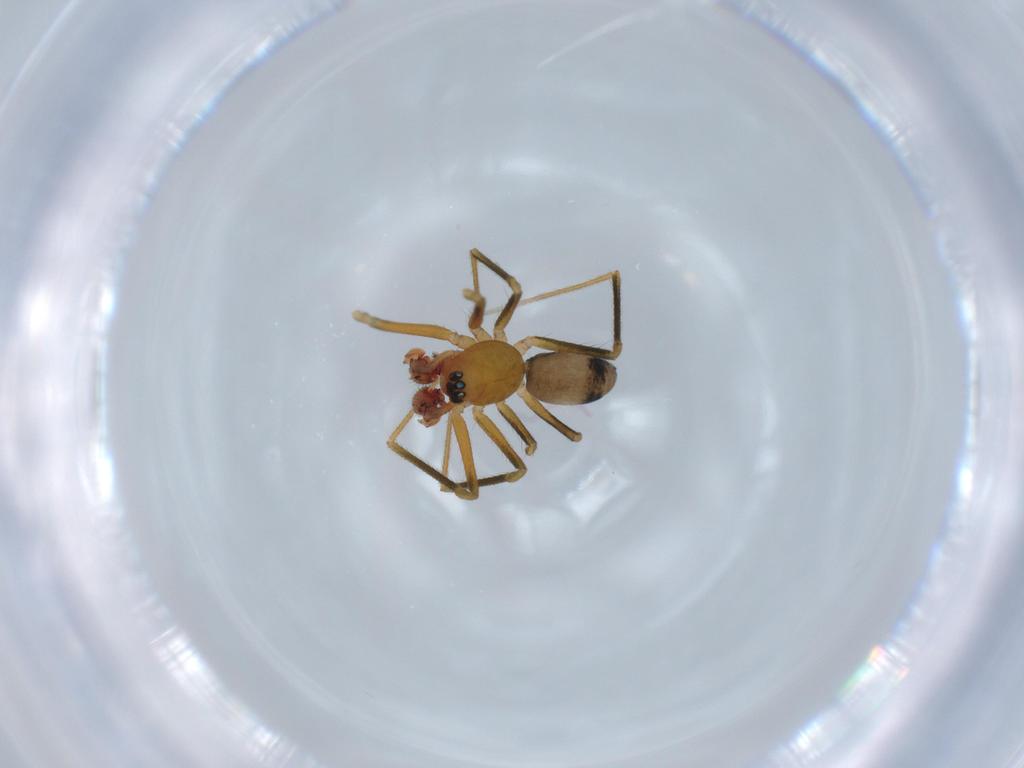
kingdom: Animalia
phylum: Arthropoda
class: Arachnida
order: Araneae
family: Linyphiidae
